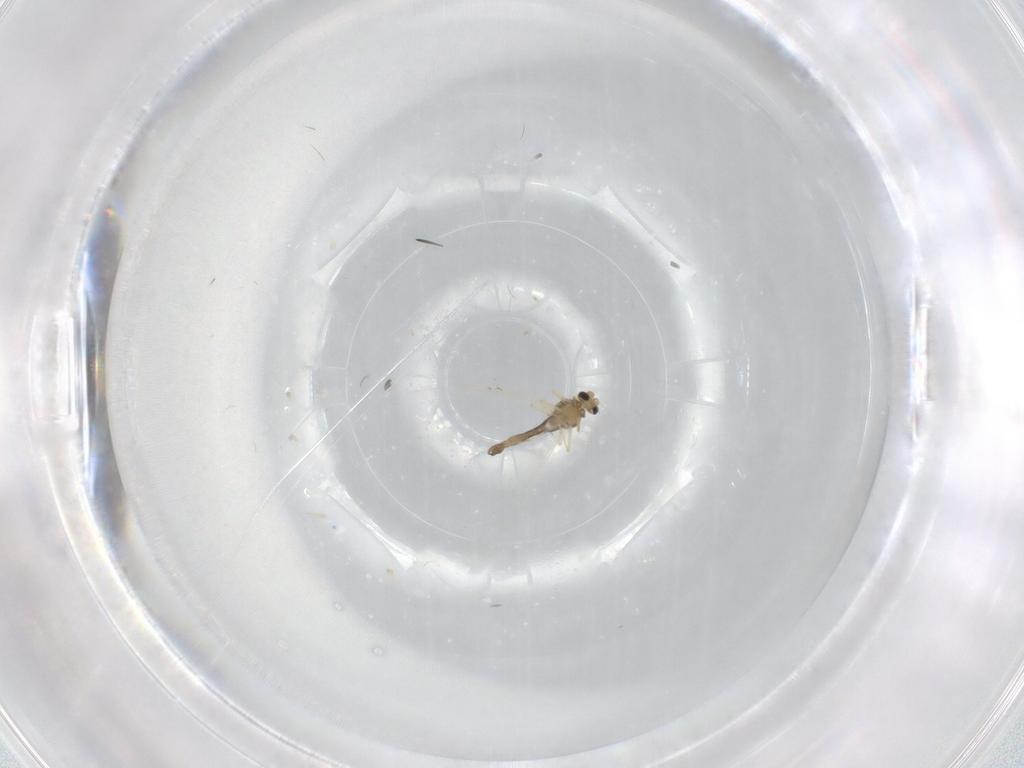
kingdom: Animalia
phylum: Arthropoda
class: Insecta
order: Diptera
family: Chironomidae
